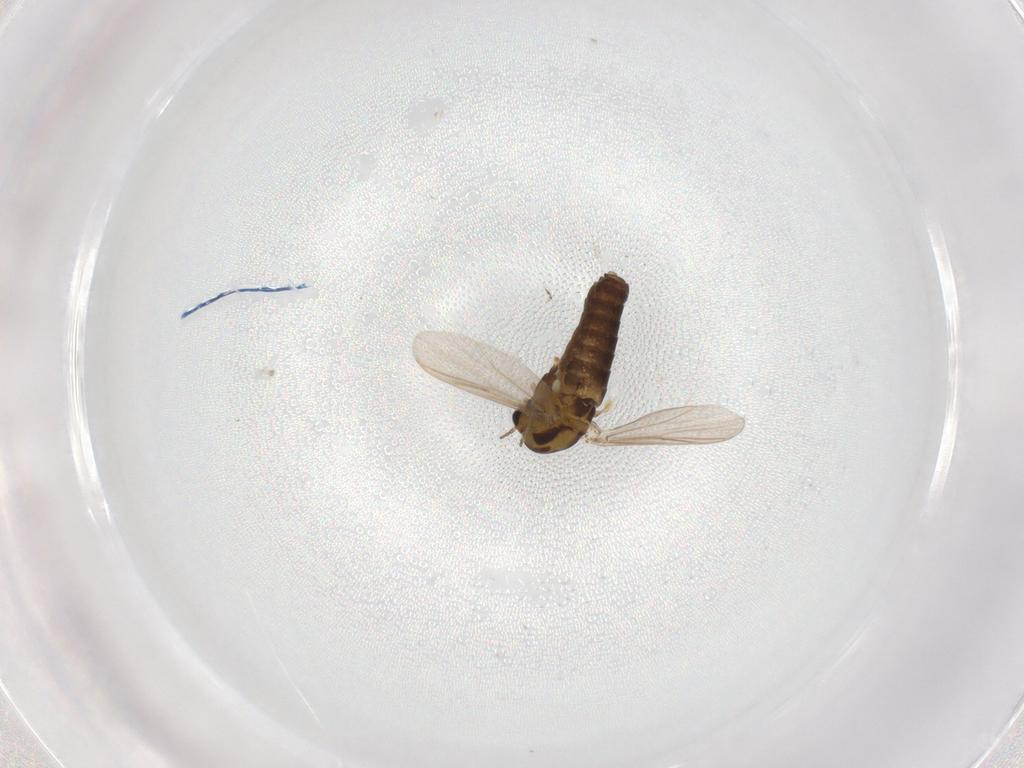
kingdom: Animalia
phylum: Arthropoda
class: Insecta
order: Diptera
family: Chironomidae
